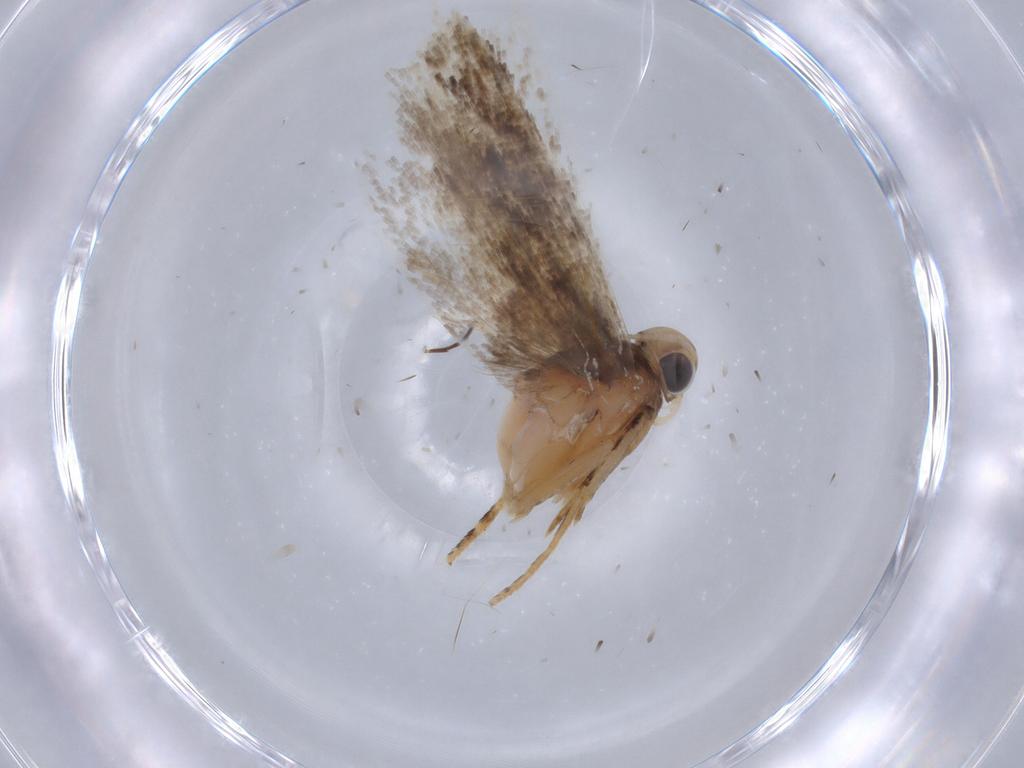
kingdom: Animalia
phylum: Arthropoda
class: Insecta
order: Lepidoptera
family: Gelechiidae
